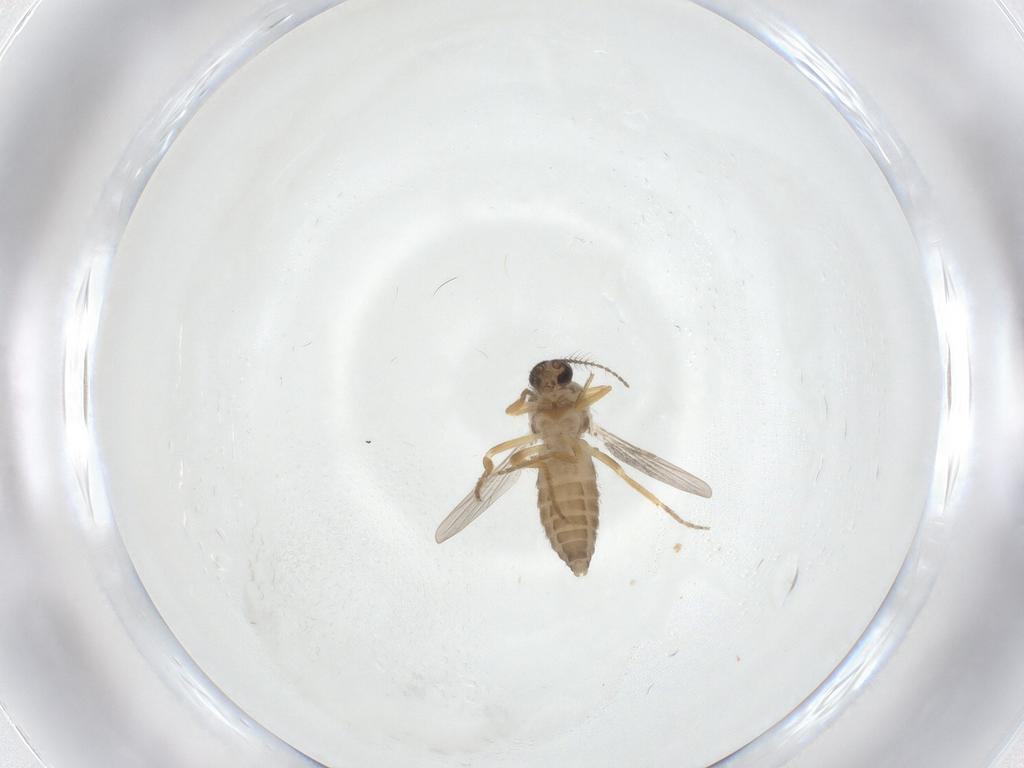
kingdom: Animalia
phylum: Arthropoda
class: Insecta
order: Diptera
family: Ceratopogonidae
